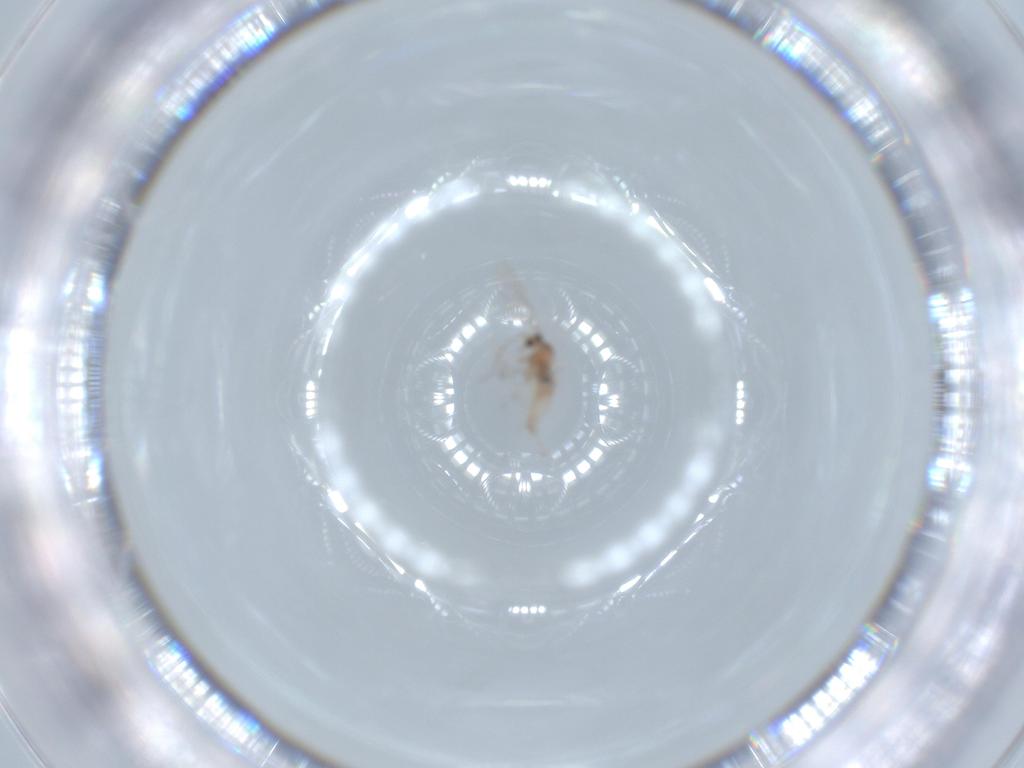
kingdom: Animalia
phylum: Arthropoda
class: Insecta
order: Diptera
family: Cecidomyiidae
